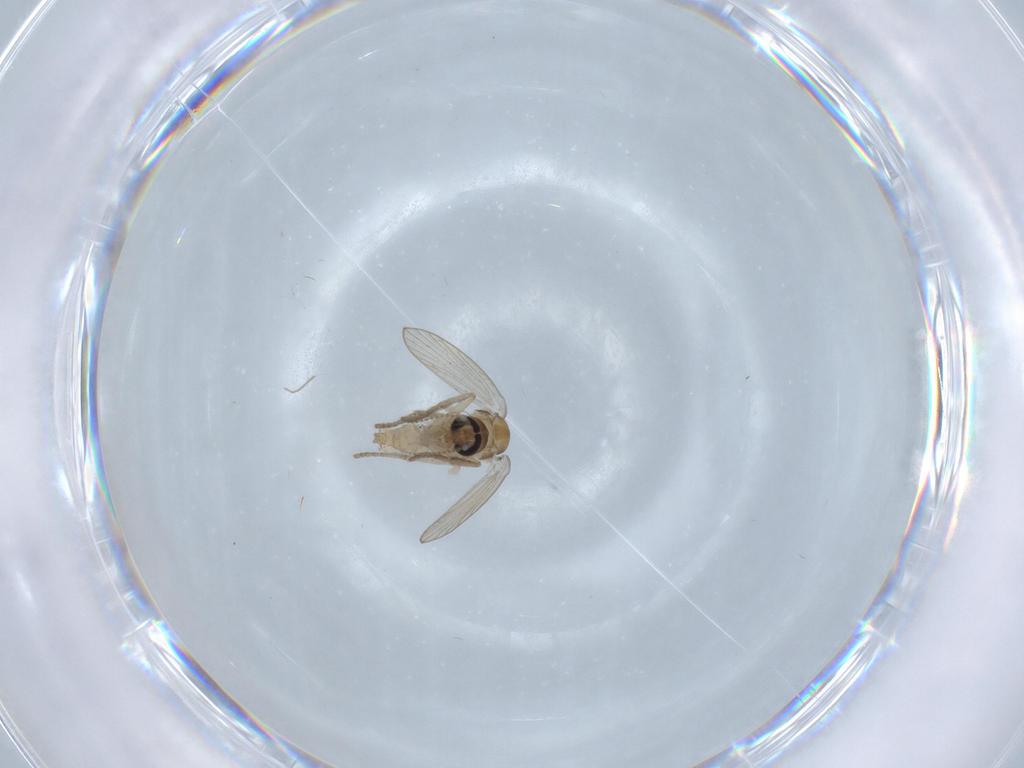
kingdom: Animalia
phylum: Arthropoda
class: Insecta
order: Diptera
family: Psychodidae
